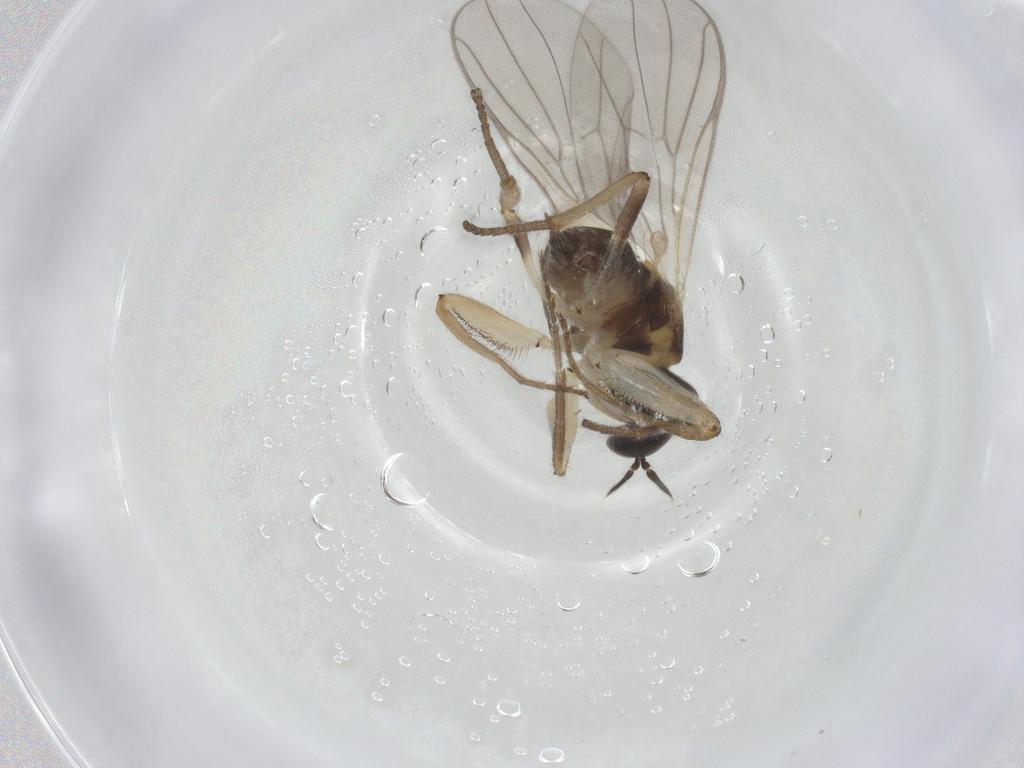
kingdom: Animalia
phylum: Arthropoda
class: Insecta
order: Diptera
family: Hybotidae
